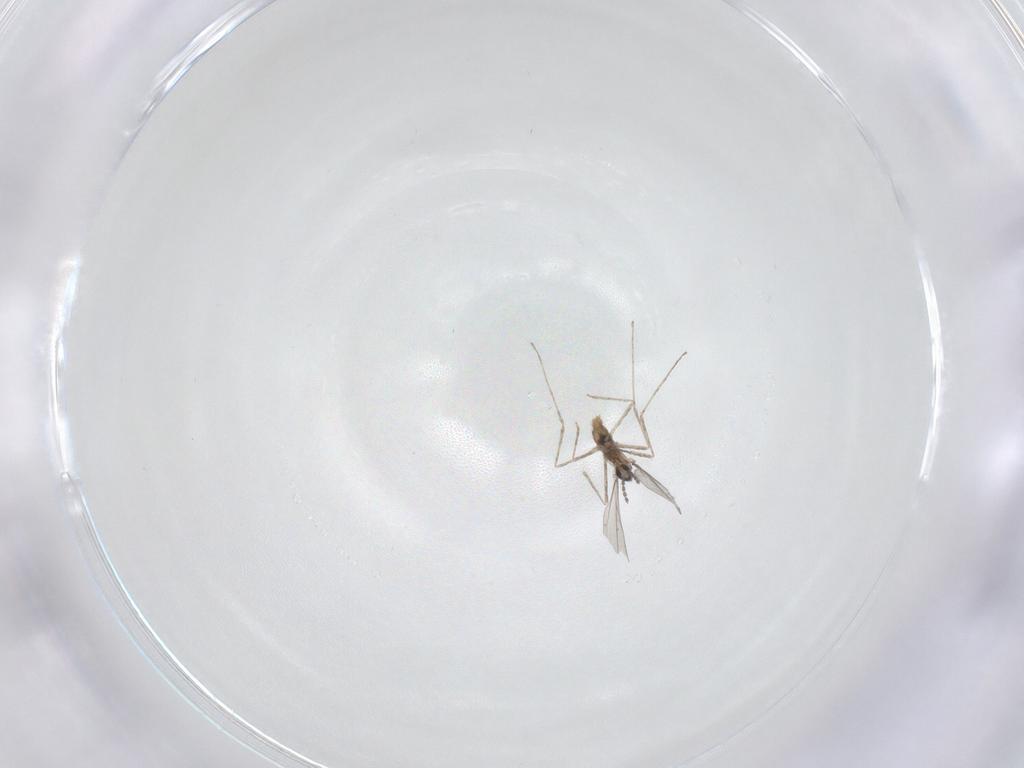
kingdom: Animalia
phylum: Arthropoda
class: Insecta
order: Diptera
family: Cecidomyiidae
